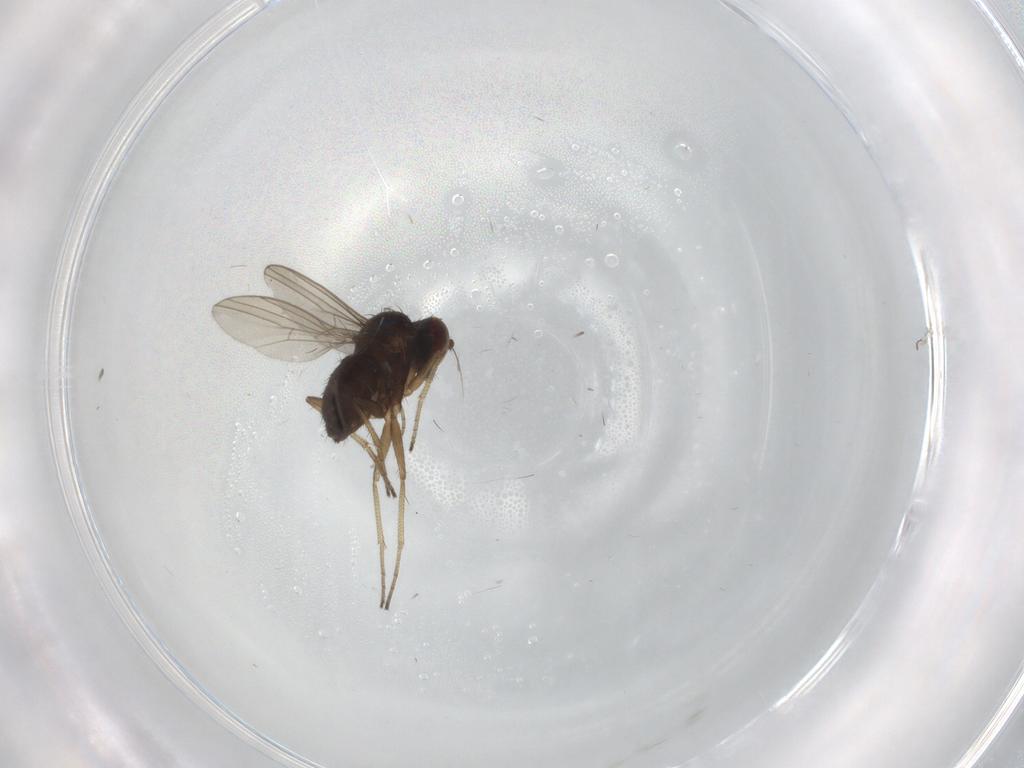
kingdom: Animalia
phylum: Arthropoda
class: Insecta
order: Diptera
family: Dolichopodidae
